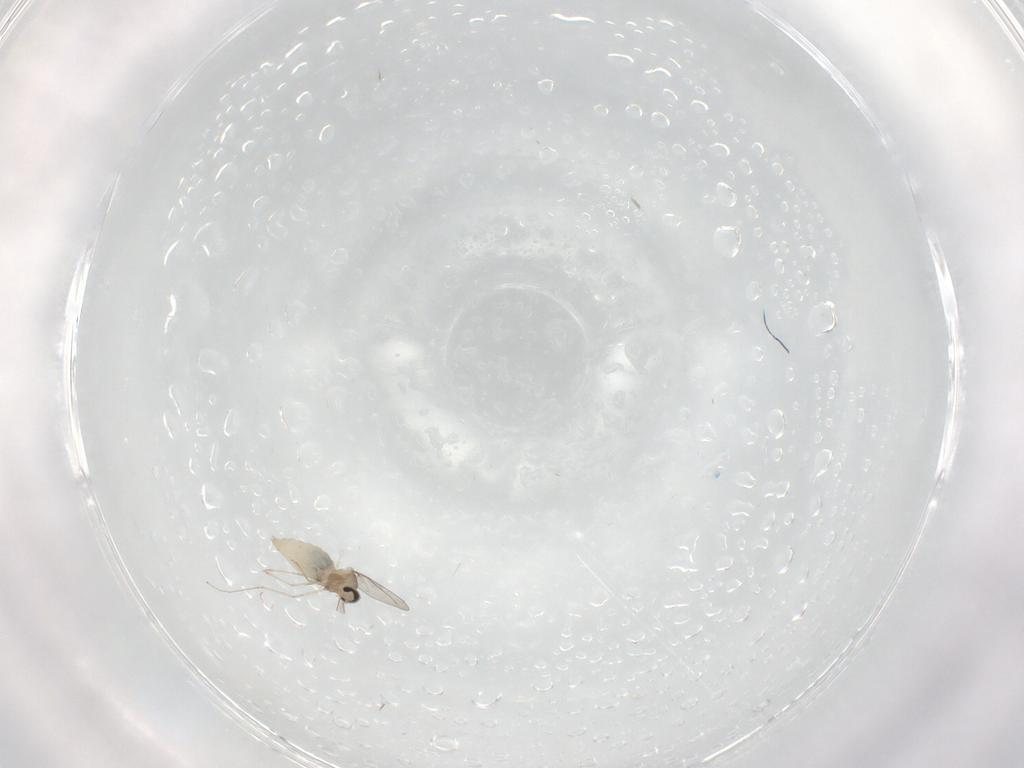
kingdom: Animalia
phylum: Arthropoda
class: Insecta
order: Diptera
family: Cecidomyiidae
